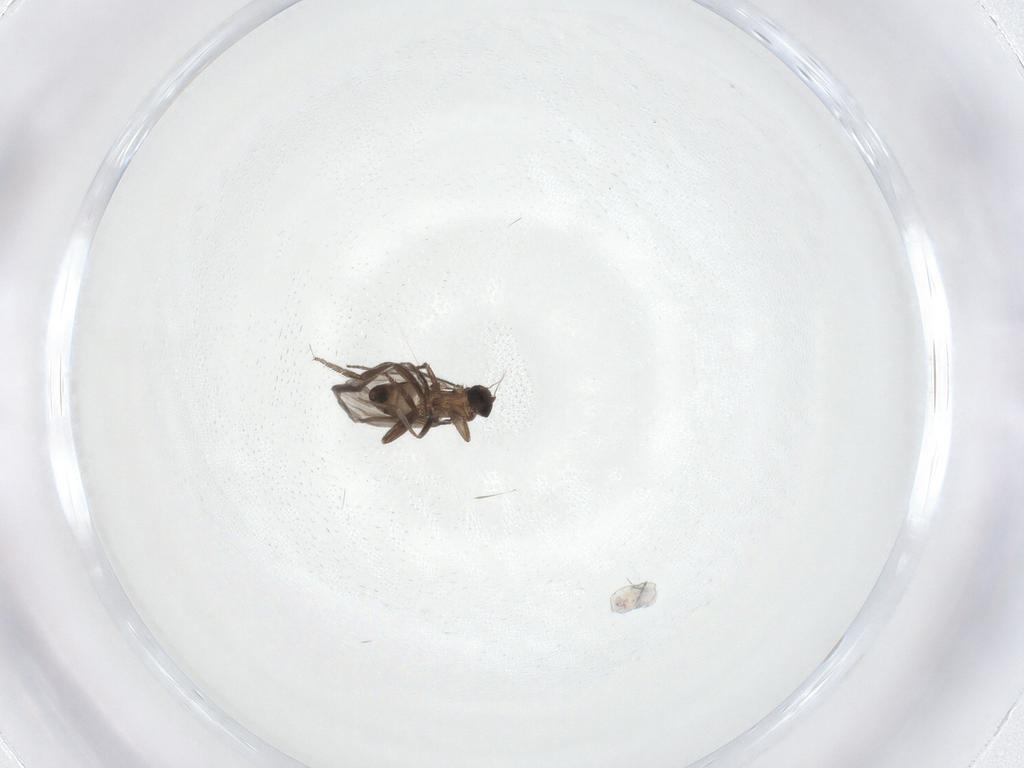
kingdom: Animalia
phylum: Arthropoda
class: Insecta
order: Diptera
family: Phoridae
